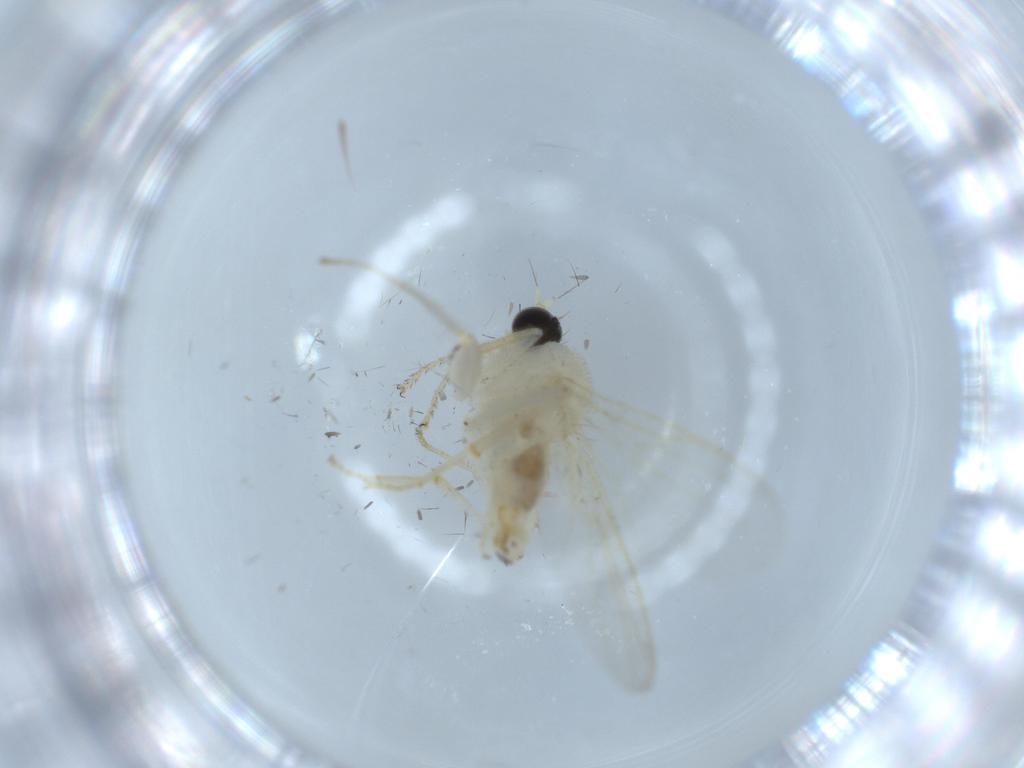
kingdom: Animalia
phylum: Arthropoda
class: Insecta
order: Diptera
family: Hybotidae
